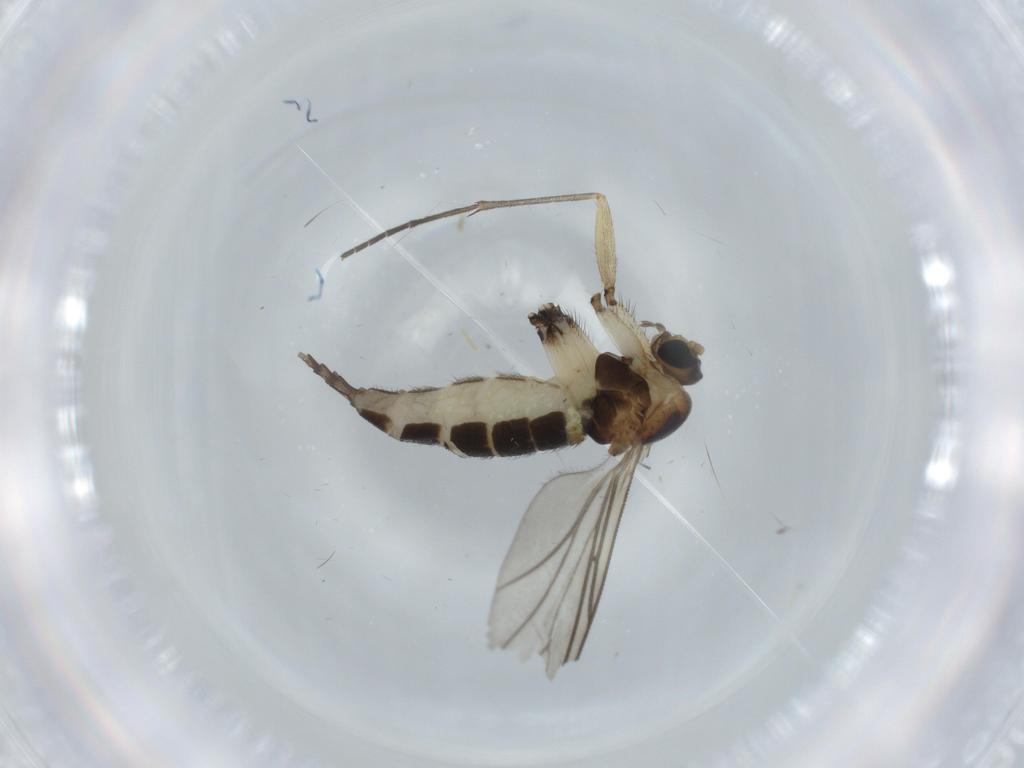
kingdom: Animalia
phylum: Arthropoda
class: Insecta
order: Diptera
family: Sciaridae
